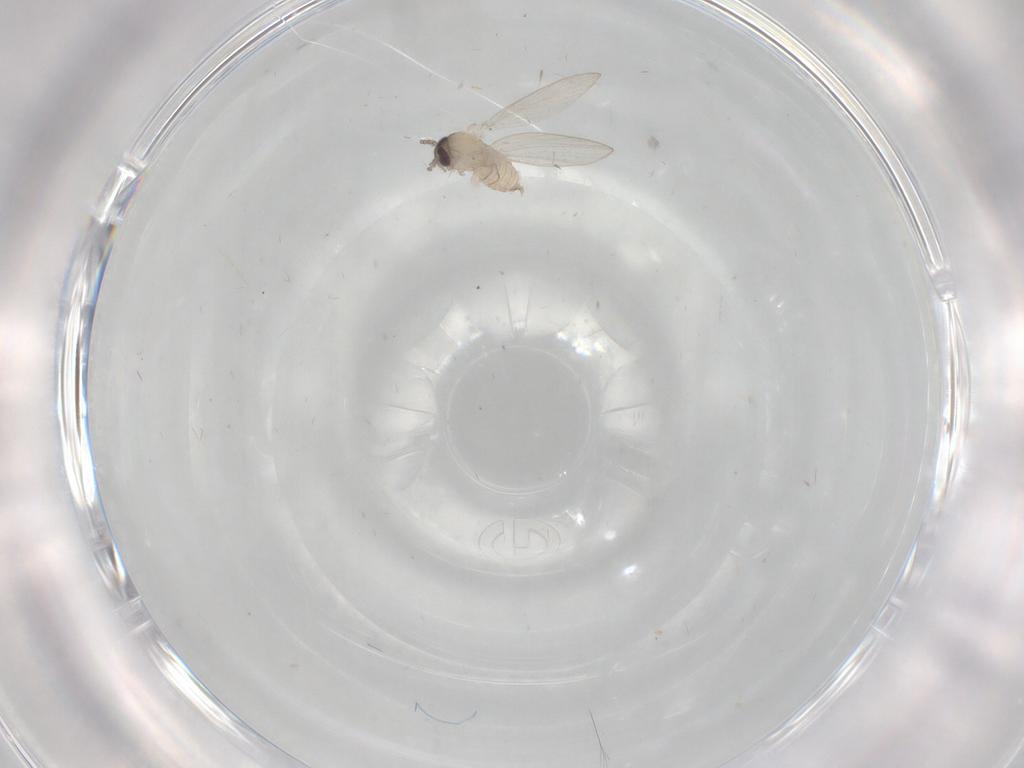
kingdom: Animalia
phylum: Arthropoda
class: Insecta
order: Diptera
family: Psychodidae
